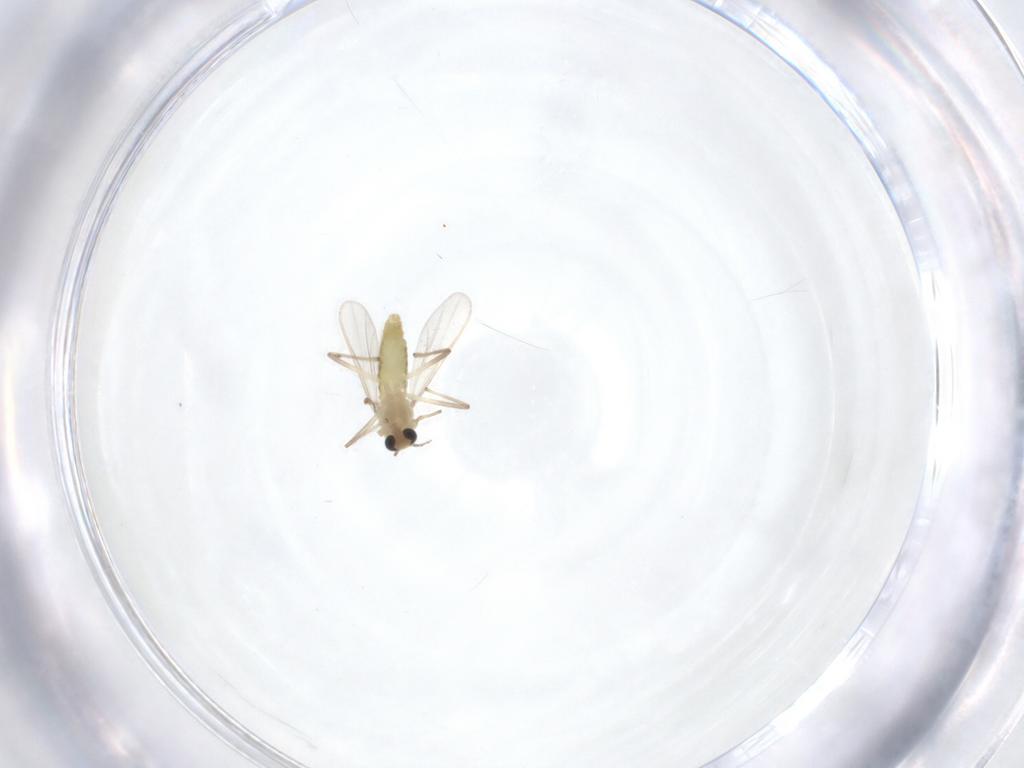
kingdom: Animalia
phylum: Arthropoda
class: Insecta
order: Diptera
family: Chironomidae
